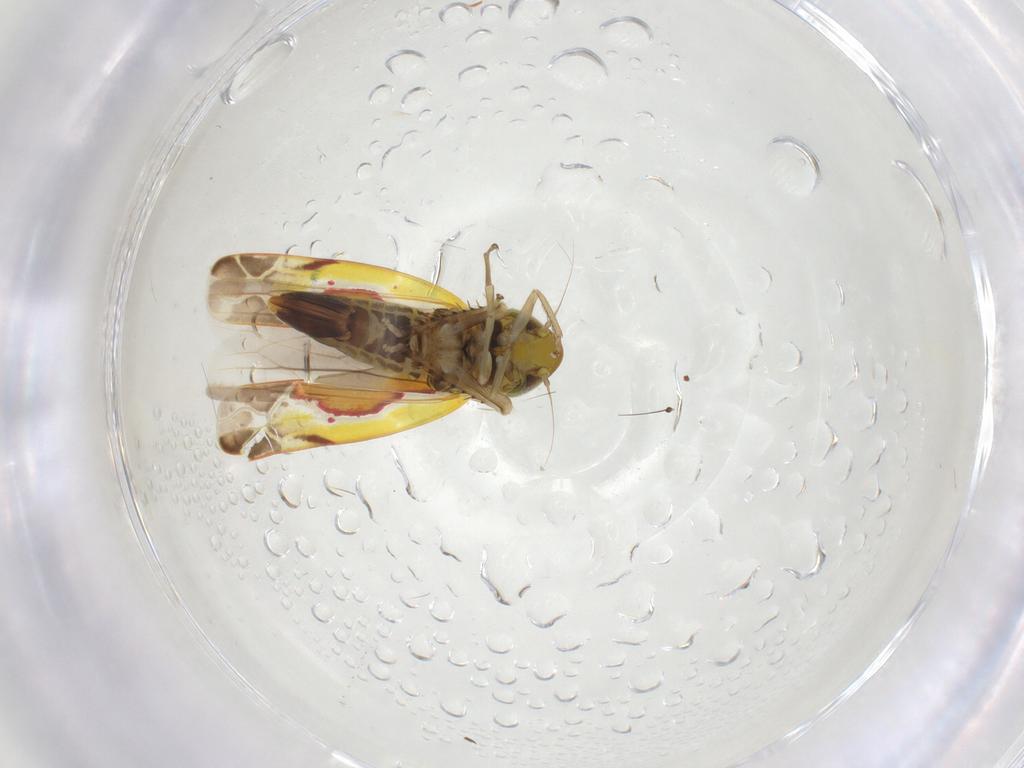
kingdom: Animalia
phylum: Arthropoda
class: Insecta
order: Hemiptera
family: Cicadellidae
